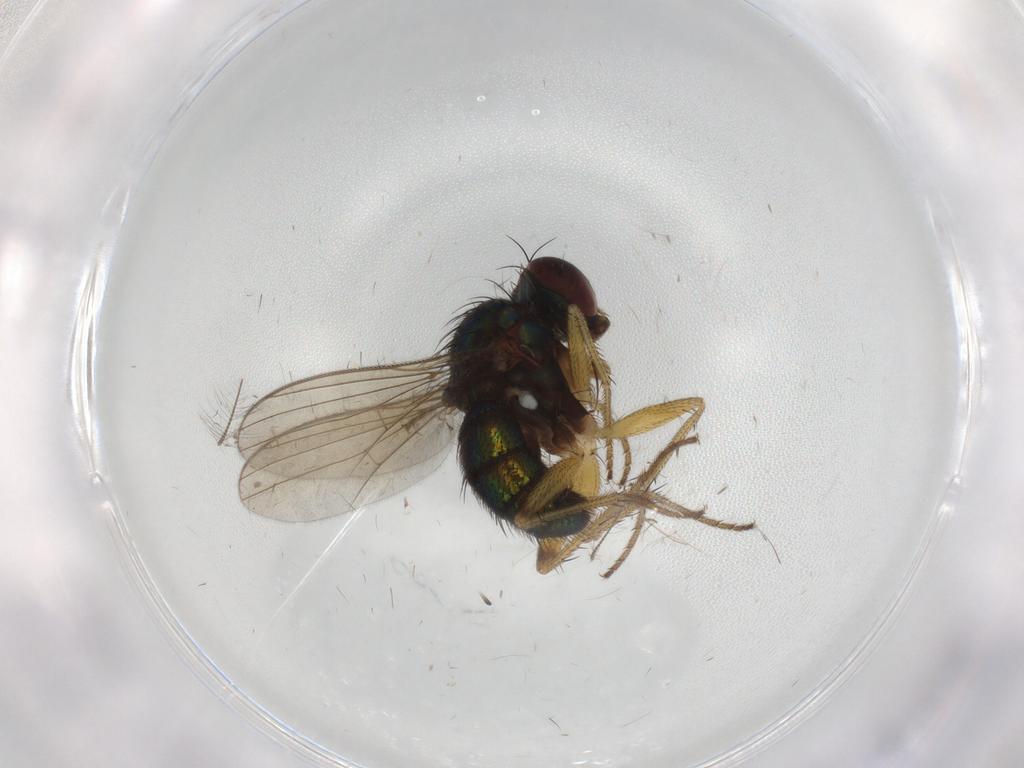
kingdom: Animalia
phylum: Arthropoda
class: Insecta
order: Diptera
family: Dolichopodidae
